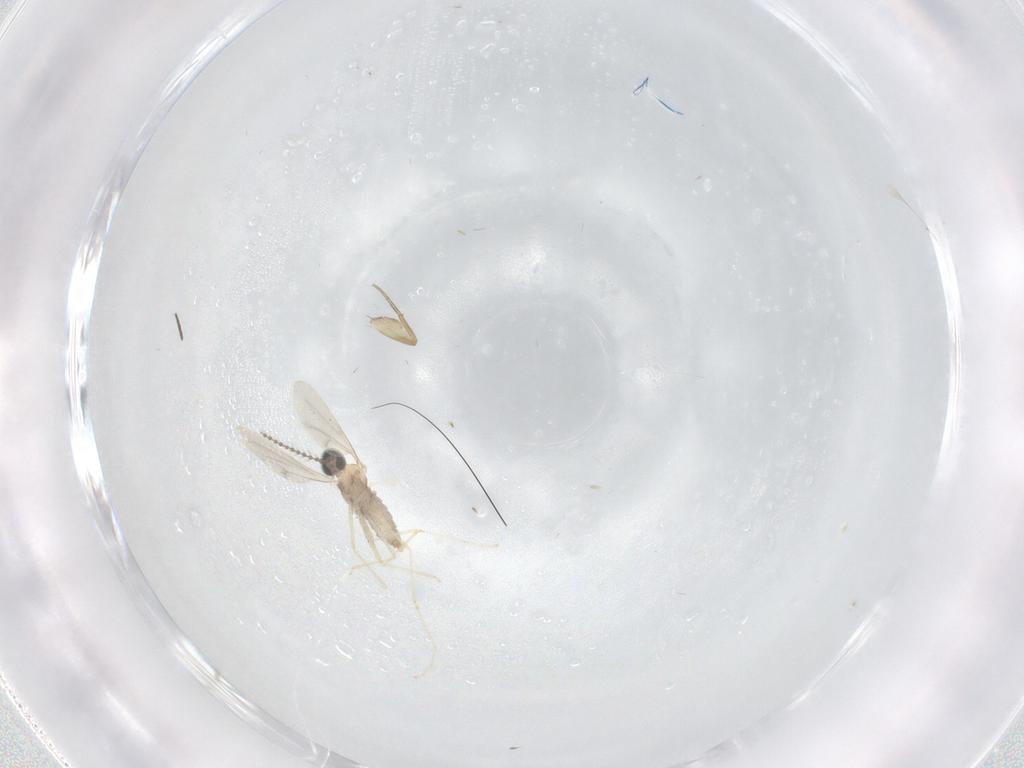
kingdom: Animalia
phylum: Arthropoda
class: Insecta
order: Diptera
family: Cecidomyiidae
